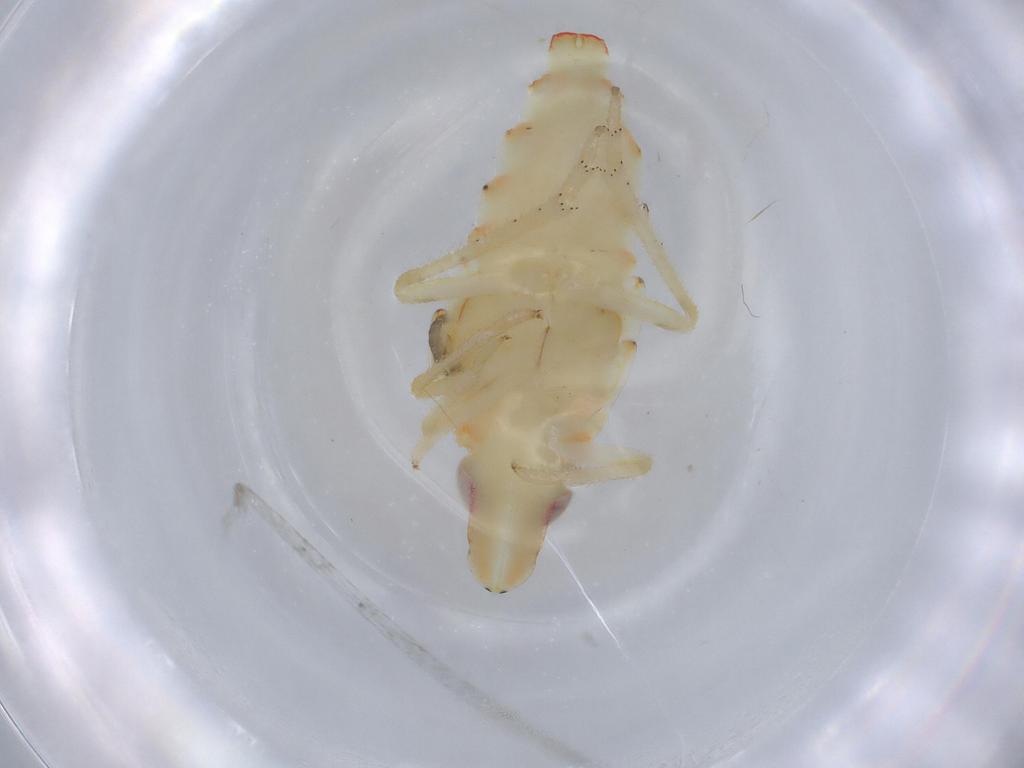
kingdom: Animalia
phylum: Arthropoda
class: Insecta
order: Hemiptera
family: Tropiduchidae
